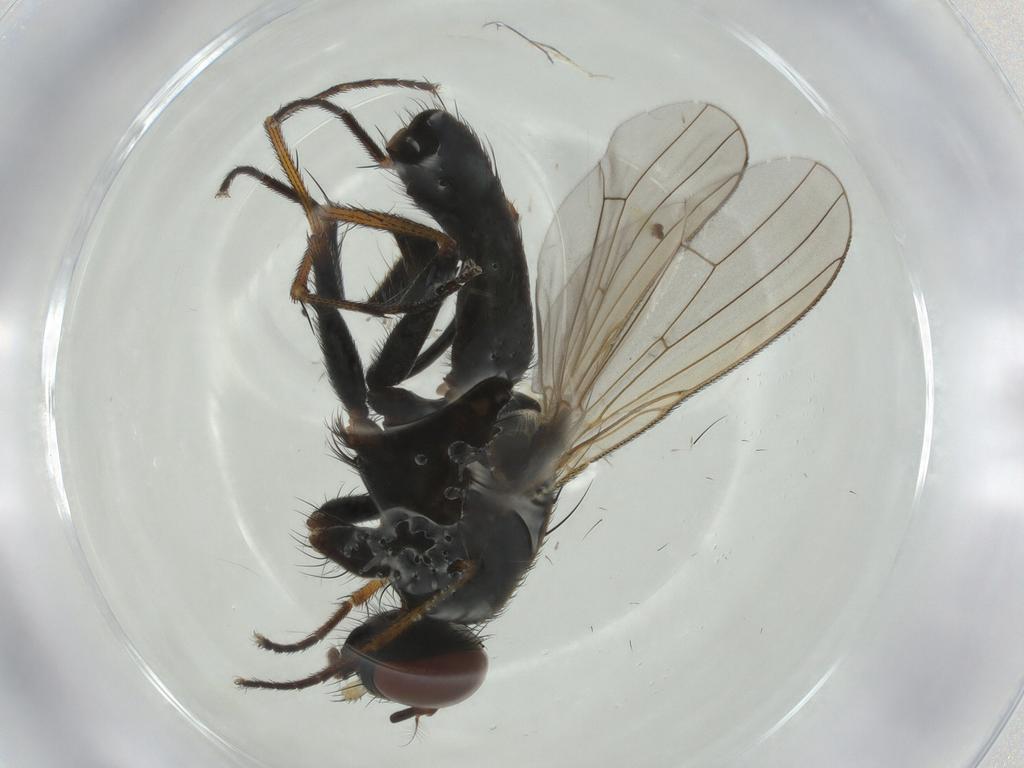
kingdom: Animalia
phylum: Arthropoda
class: Insecta
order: Diptera
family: Muscidae
